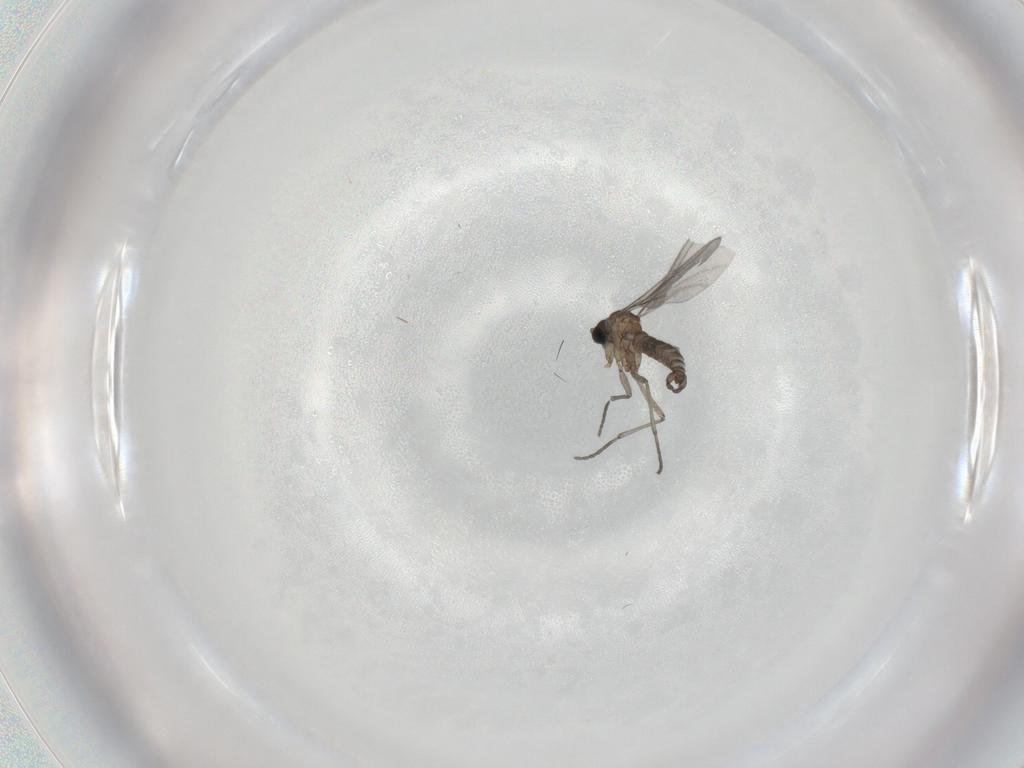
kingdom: Animalia
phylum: Arthropoda
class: Insecta
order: Diptera
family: Sciaridae
